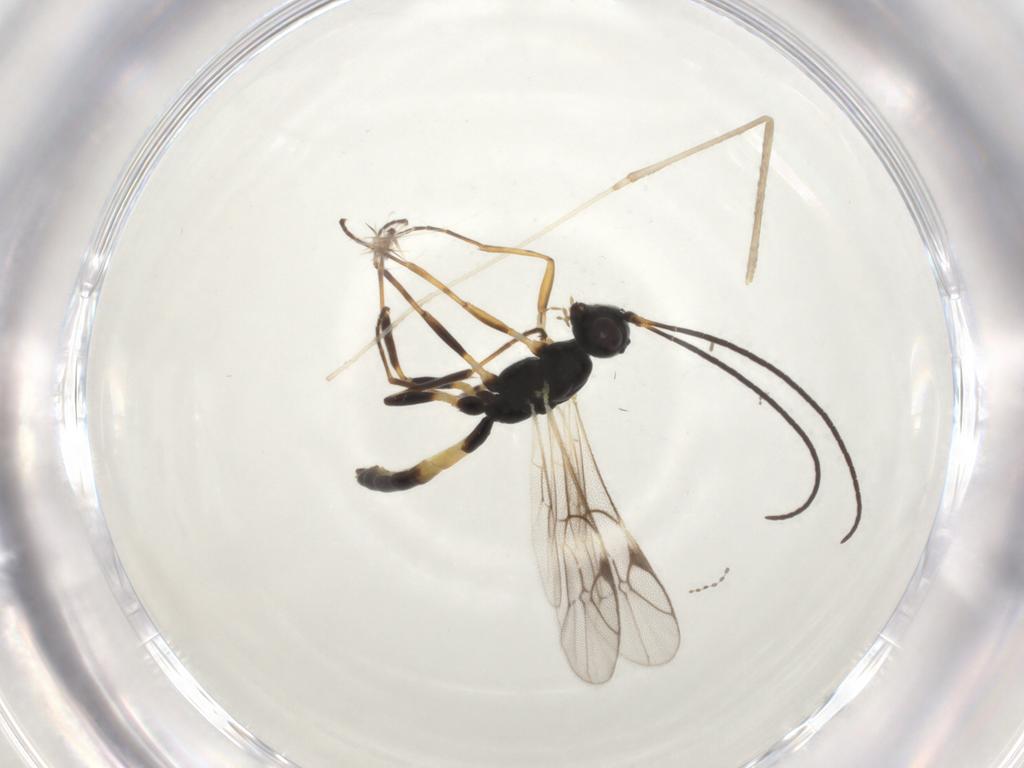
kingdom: Animalia
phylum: Arthropoda
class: Insecta
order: Hymenoptera
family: Ichneumonidae
